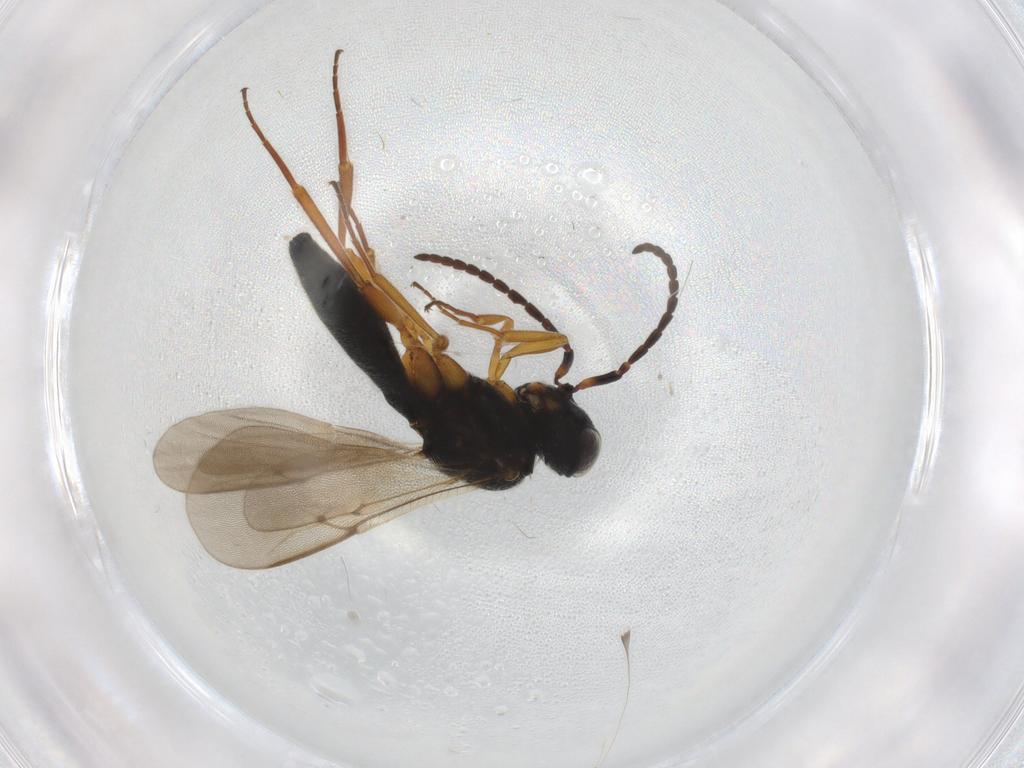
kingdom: Animalia
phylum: Arthropoda
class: Insecta
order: Hymenoptera
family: Scelionidae
